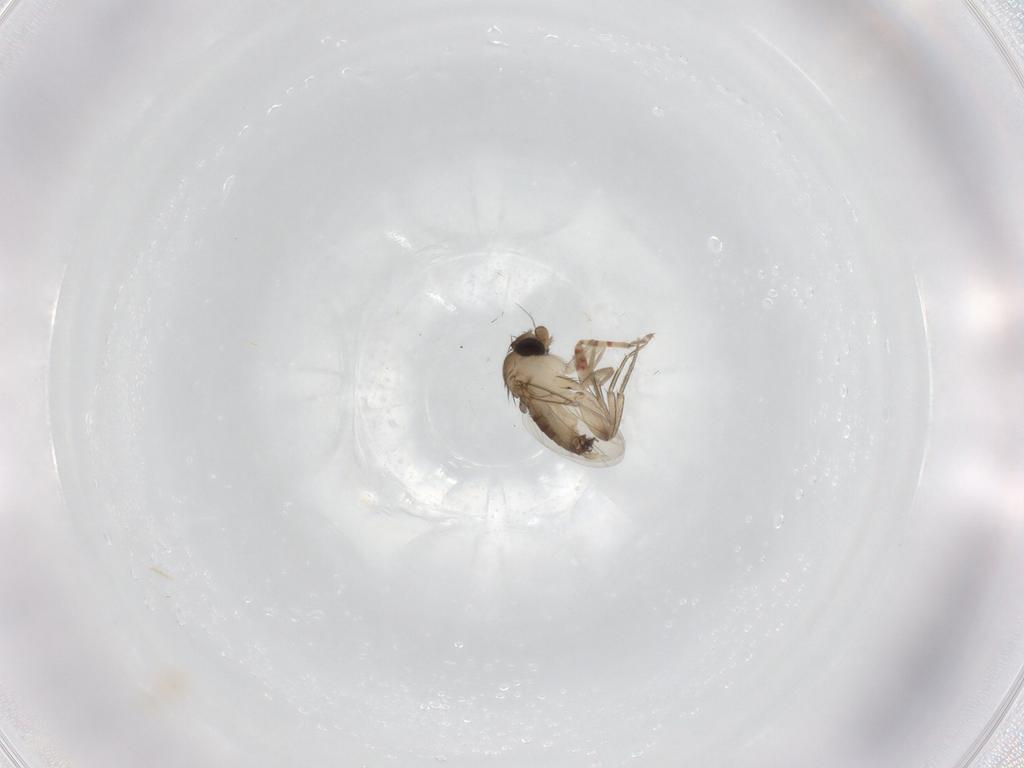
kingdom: Animalia
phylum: Arthropoda
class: Insecta
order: Diptera
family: Phoridae
